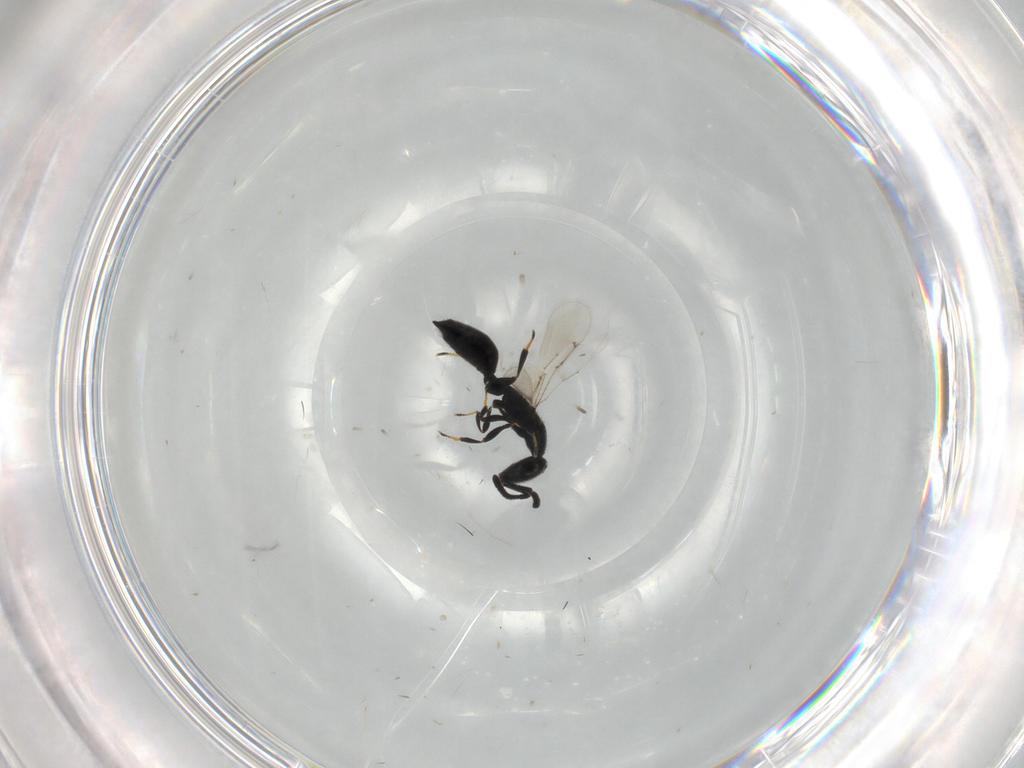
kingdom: Animalia
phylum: Arthropoda
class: Insecta
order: Hymenoptera
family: Spalangiidae
